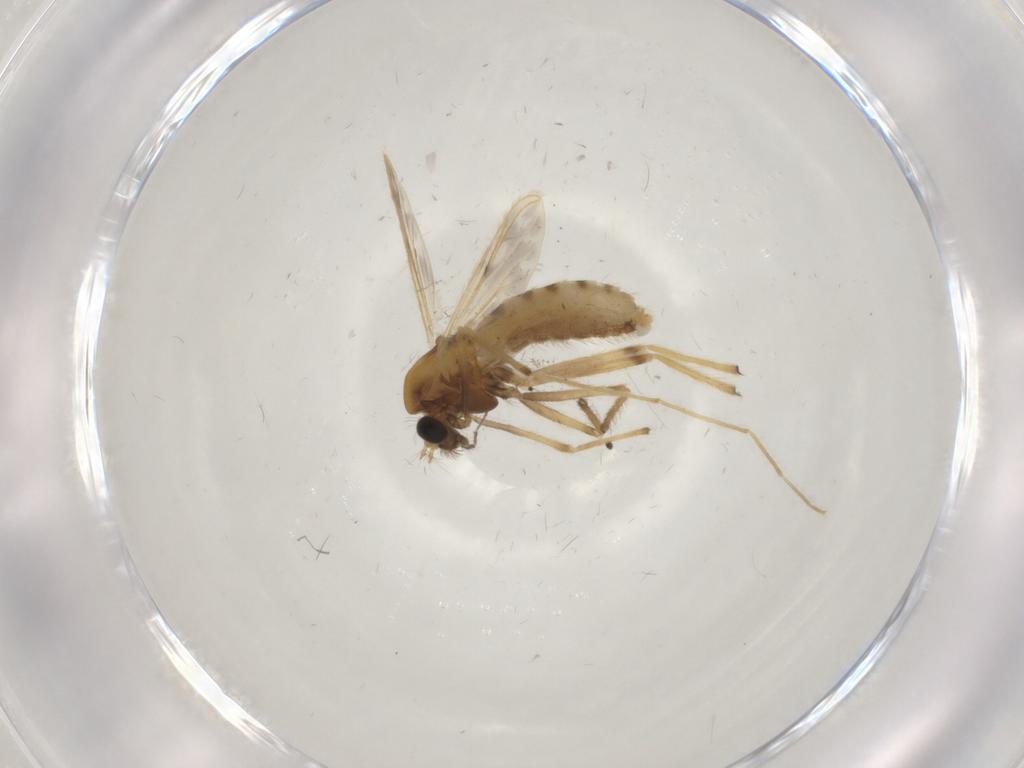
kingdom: Animalia
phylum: Arthropoda
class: Insecta
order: Diptera
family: Chironomidae
